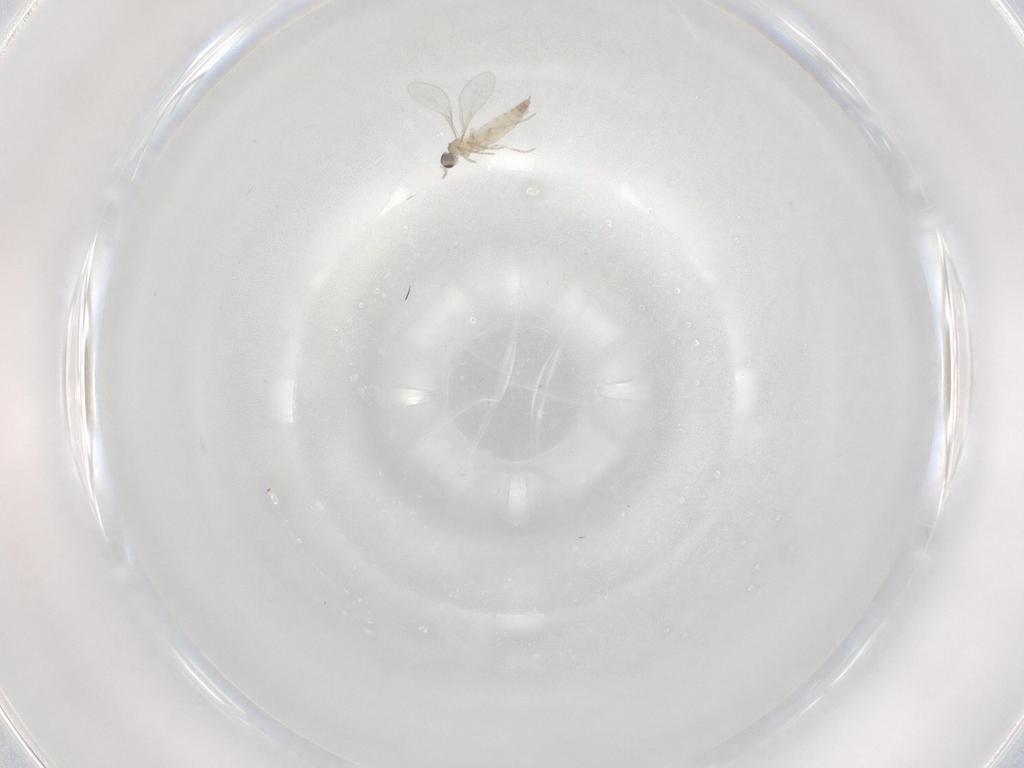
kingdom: Animalia
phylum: Arthropoda
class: Insecta
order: Diptera
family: Cecidomyiidae
